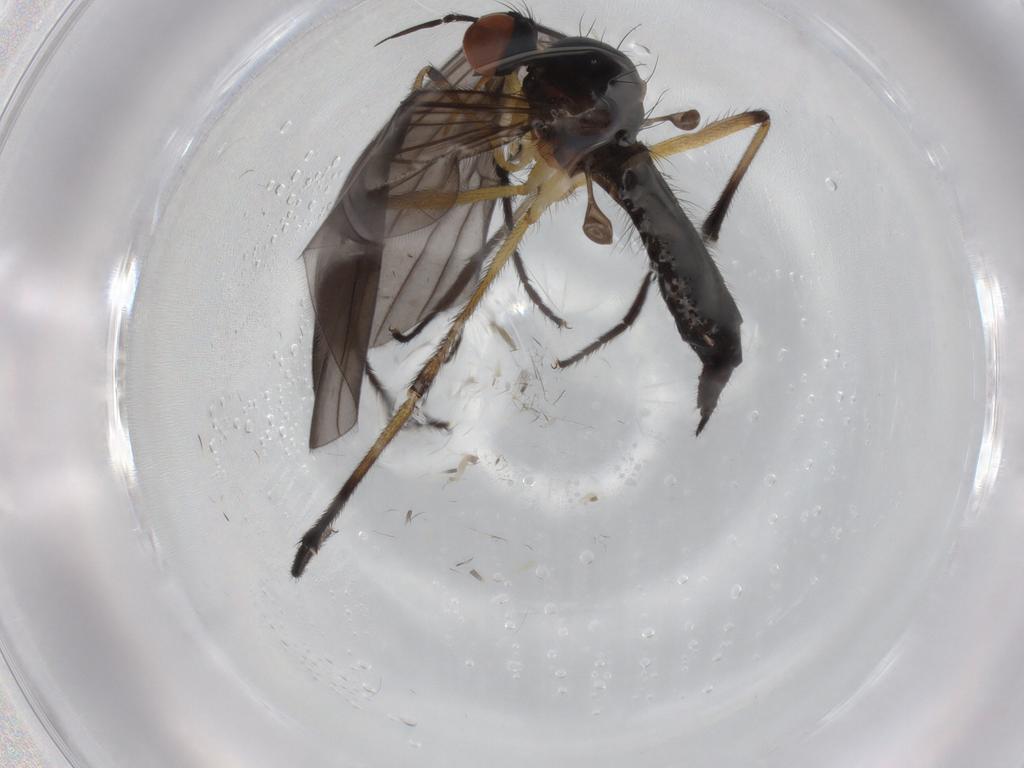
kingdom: Animalia
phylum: Arthropoda
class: Insecta
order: Diptera
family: Empididae
